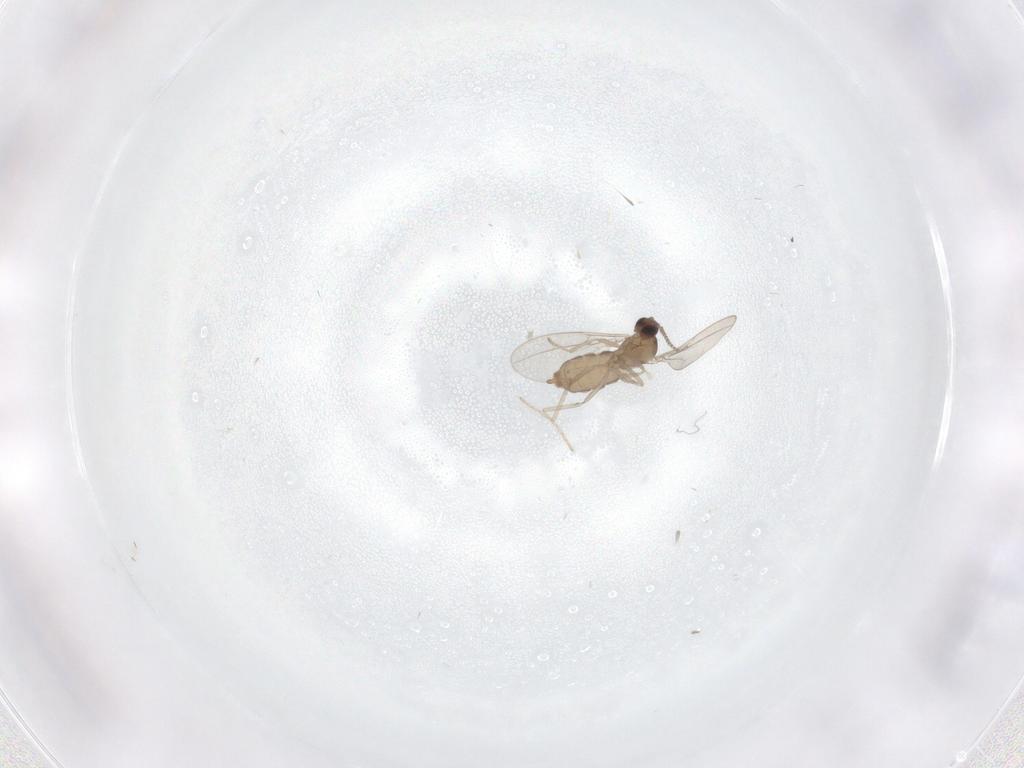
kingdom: Animalia
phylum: Arthropoda
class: Insecta
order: Diptera
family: Cecidomyiidae
